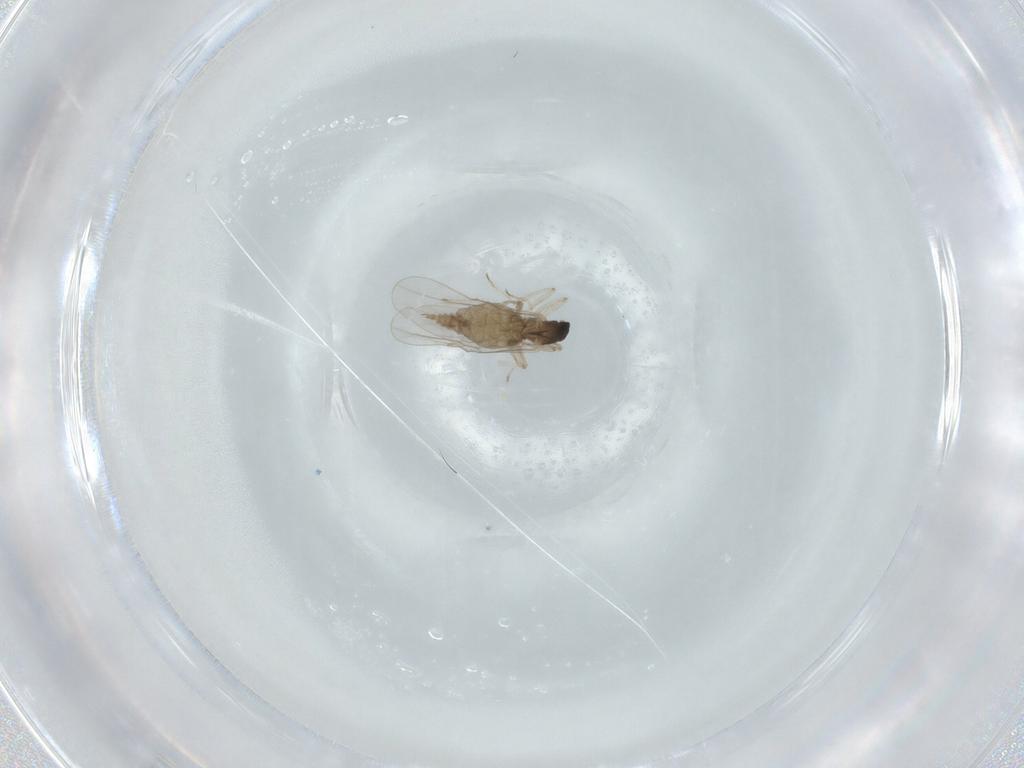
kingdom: Animalia
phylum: Arthropoda
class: Insecta
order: Diptera
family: Cecidomyiidae
